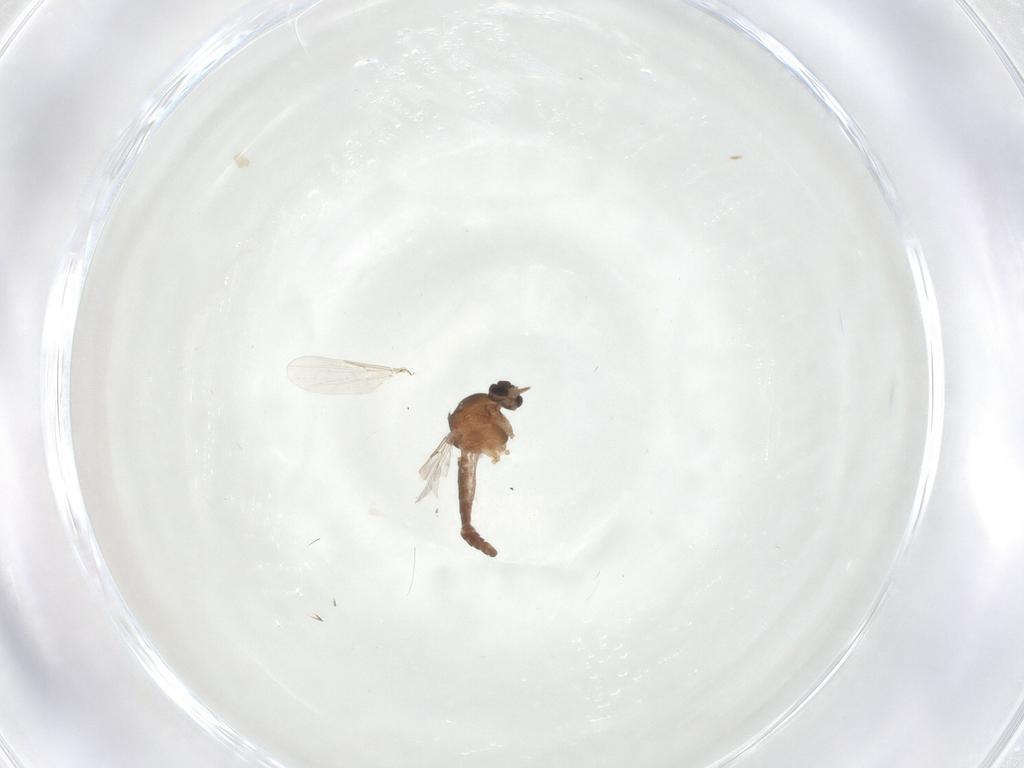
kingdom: Animalia
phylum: Arthropoda
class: Insecta
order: Diptera
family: Ceratopogonidae
